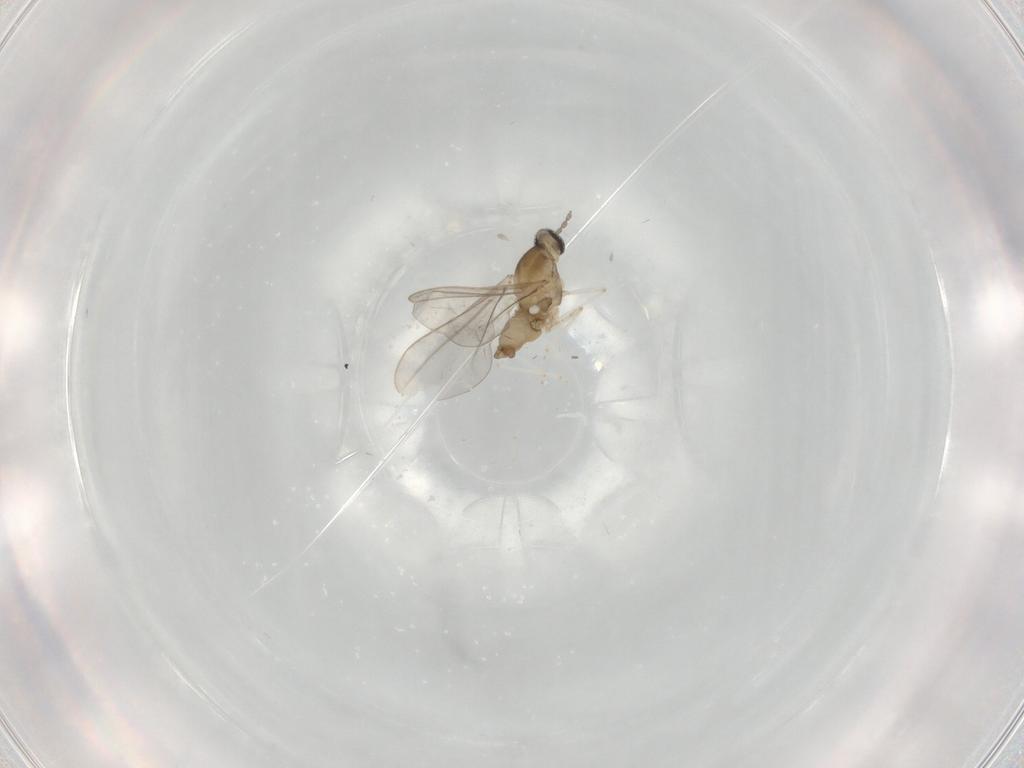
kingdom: Animalia
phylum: Arthropoda
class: Insecta
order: Diptera
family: Cecidomyiidae
